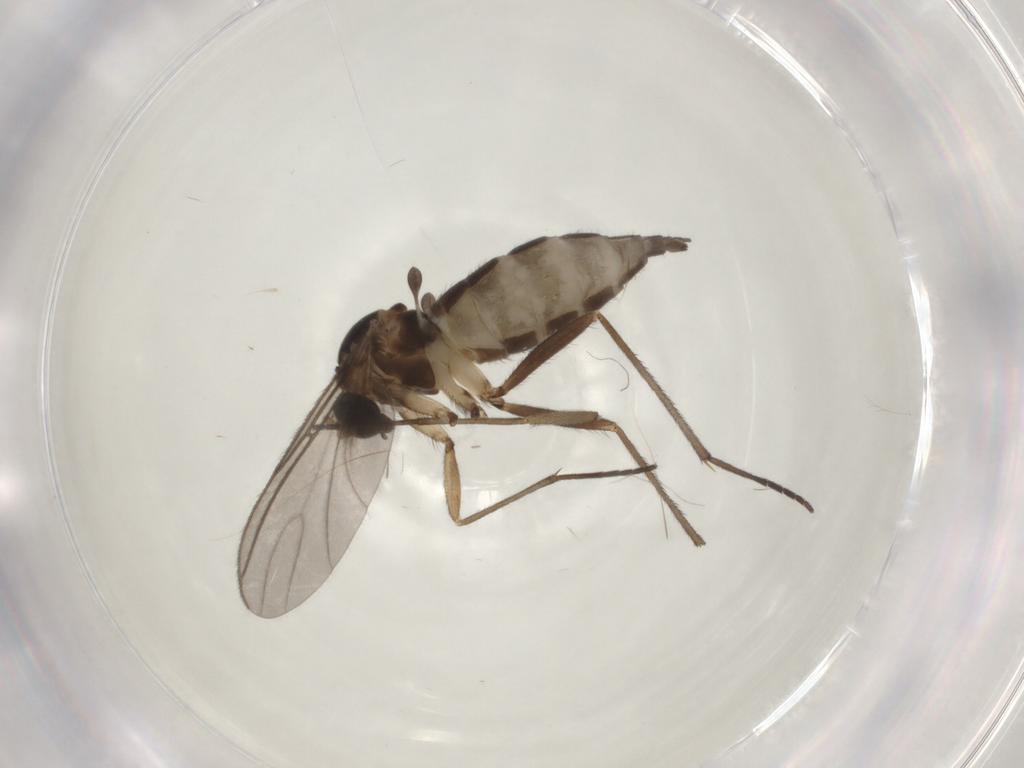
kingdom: Animalia
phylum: Arthropoda
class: Insecta
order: Diptera
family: Sciaridae
